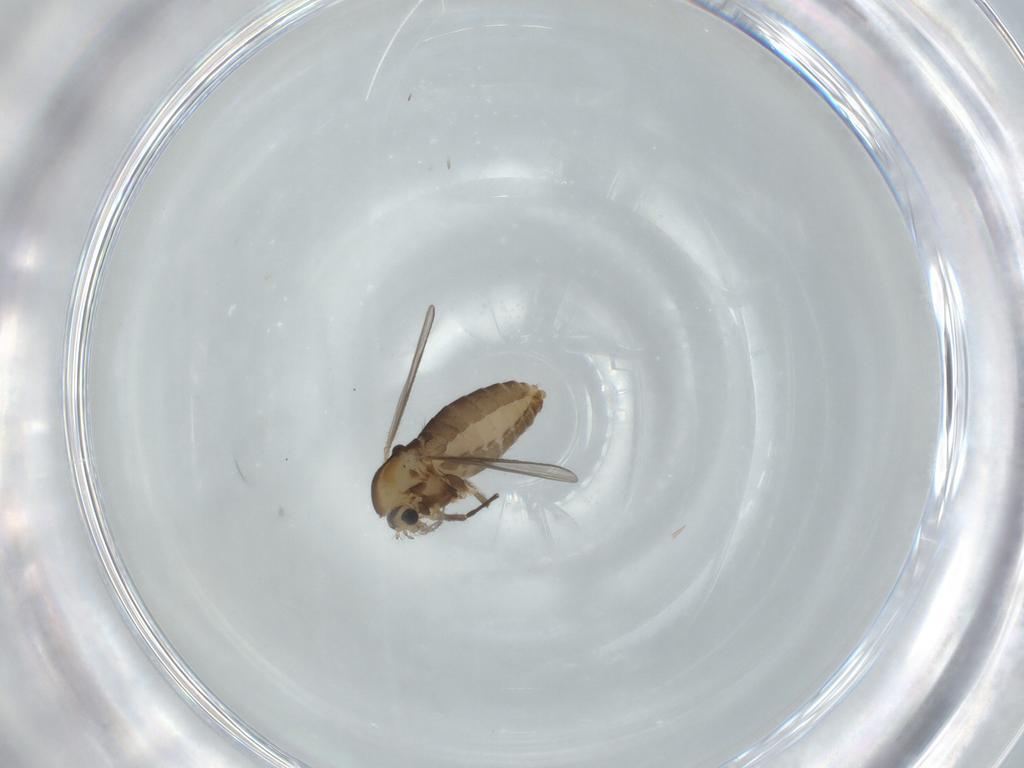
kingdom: Animalia
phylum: Arthropoda
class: Insecta
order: Diptera
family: Chironomidae
